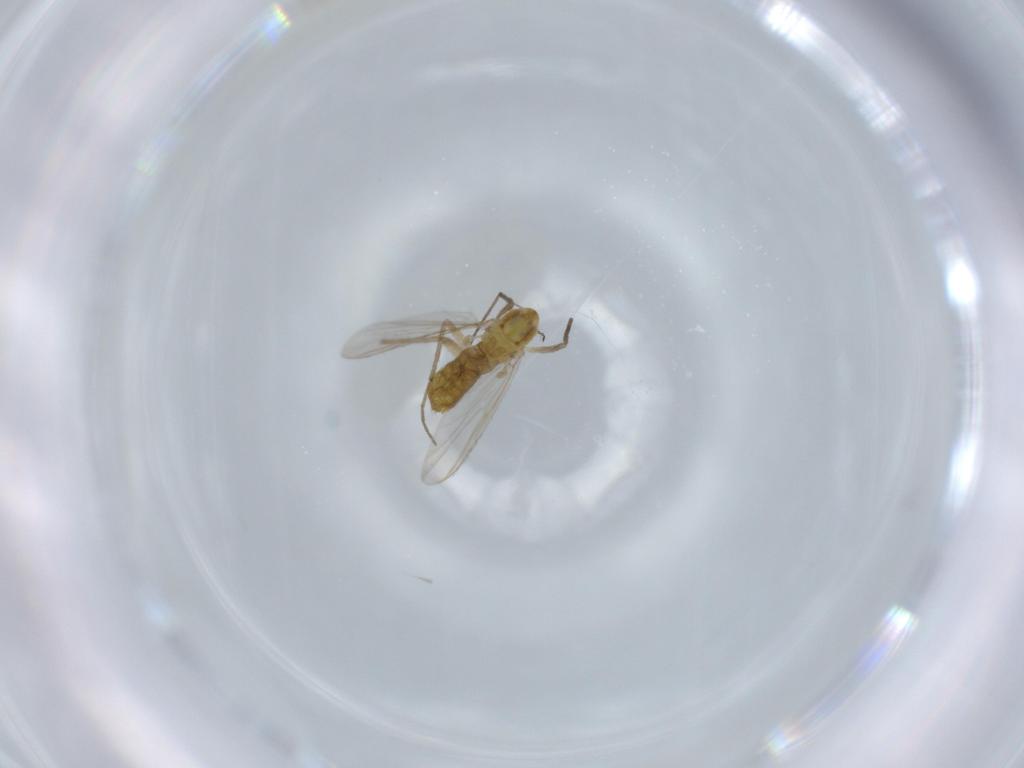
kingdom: Animalia
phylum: Arthropoda
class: Insecta
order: Diptera
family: Chironomidae
